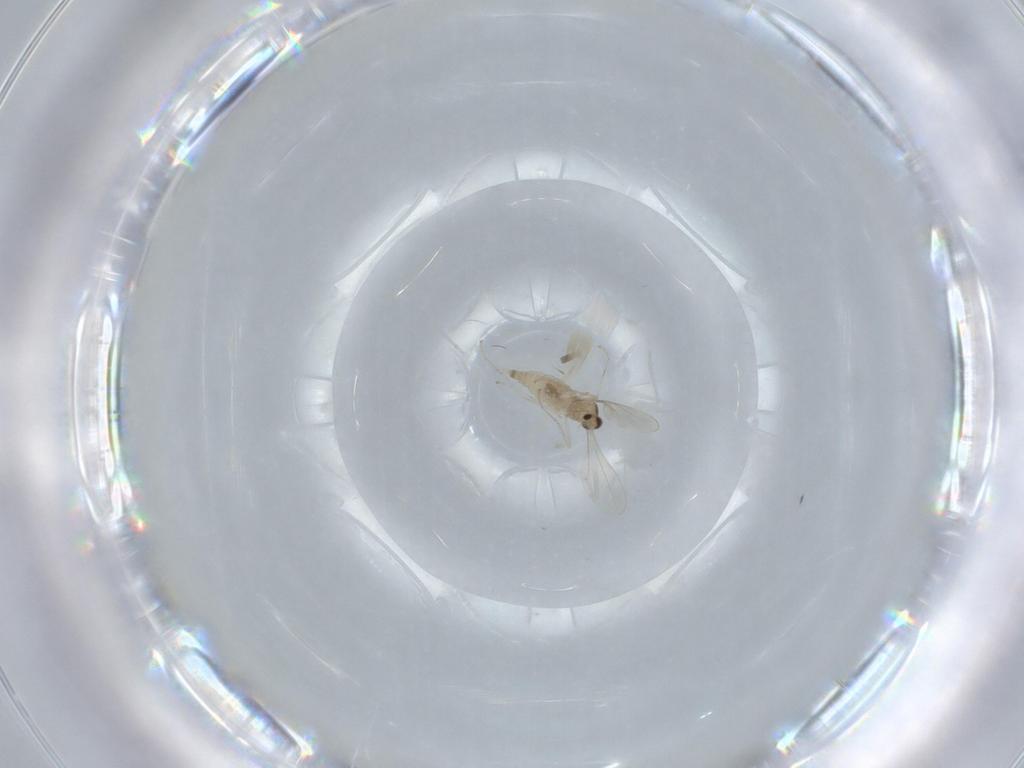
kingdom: Animalia
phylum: Arthropoda
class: Insecta
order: Diptera
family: Cecidomyiidae
